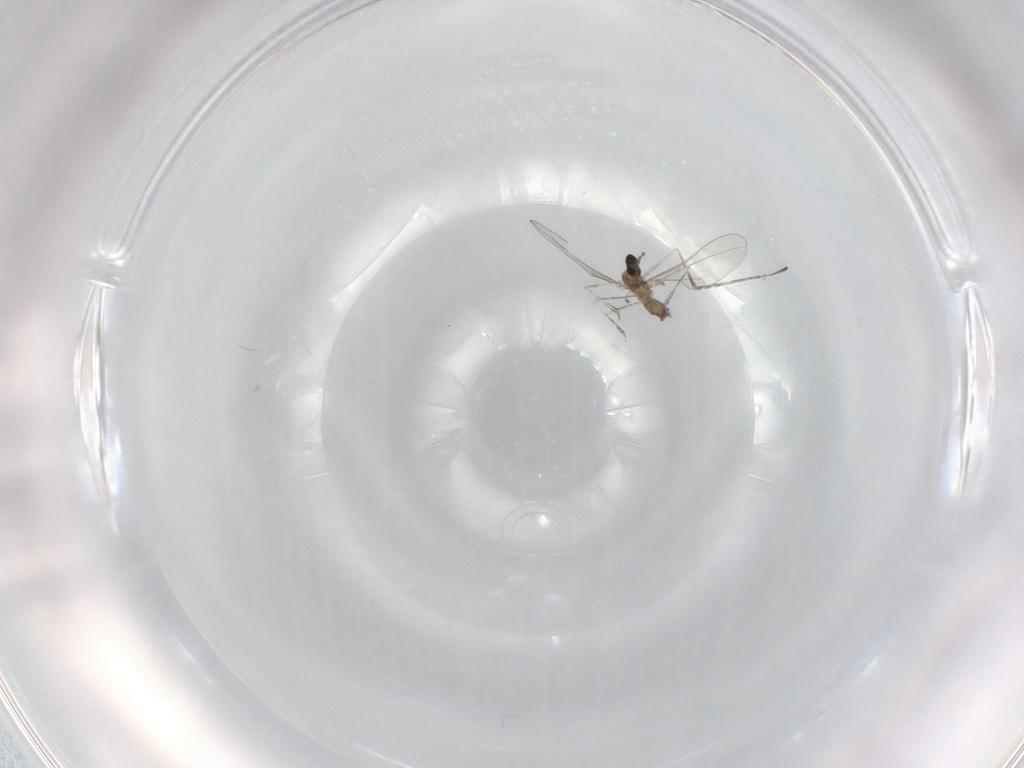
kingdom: Animalia
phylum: Arthropoda
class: Insecta
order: Diptera
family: Cecidomyiidae
